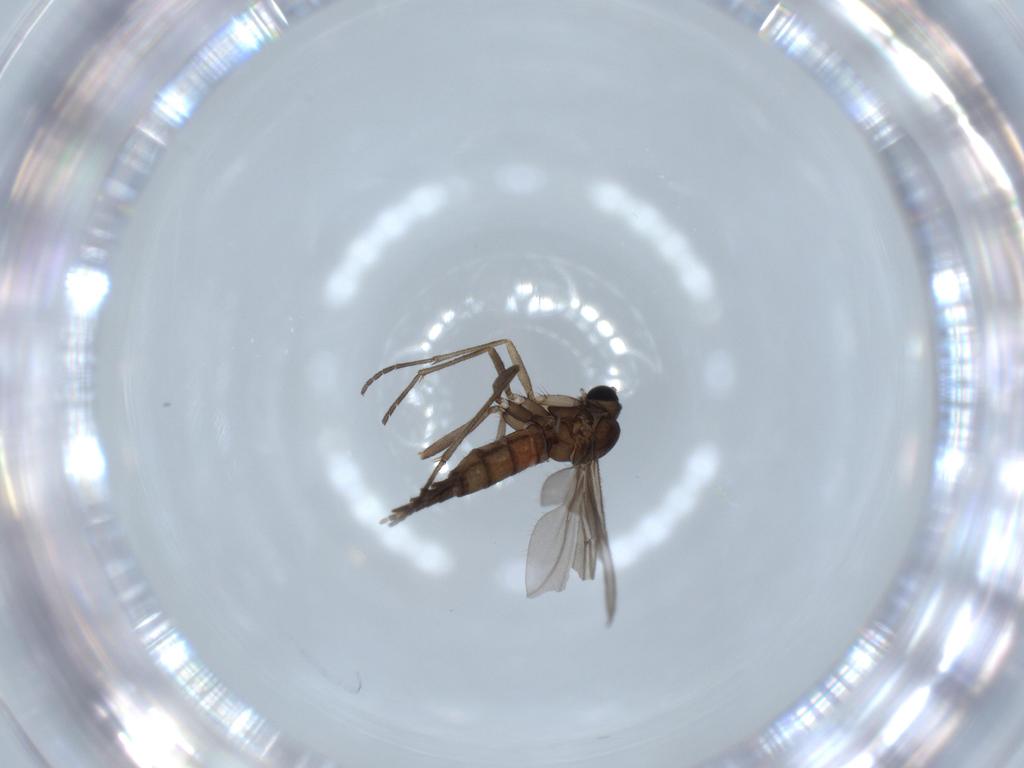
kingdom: Animalia
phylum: Arthropoda
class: Insecta
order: Diptera
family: Sciaridae
